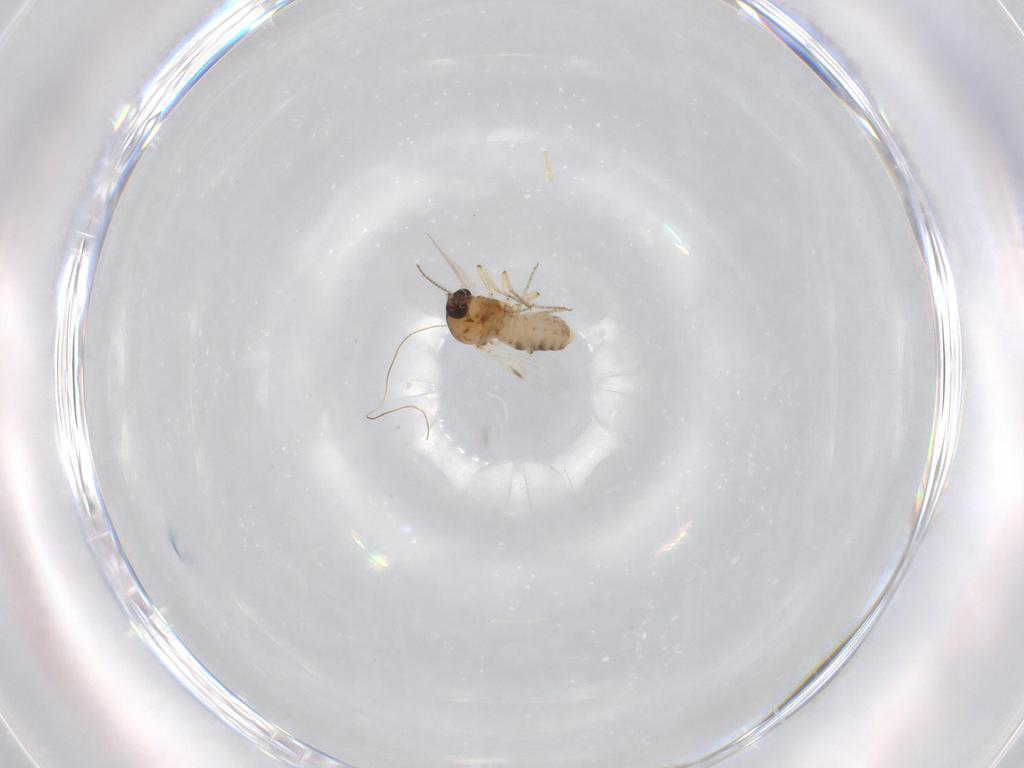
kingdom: Animalia
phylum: Arthropoda
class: Insecta
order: Diptera
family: Ceratopogonidae
